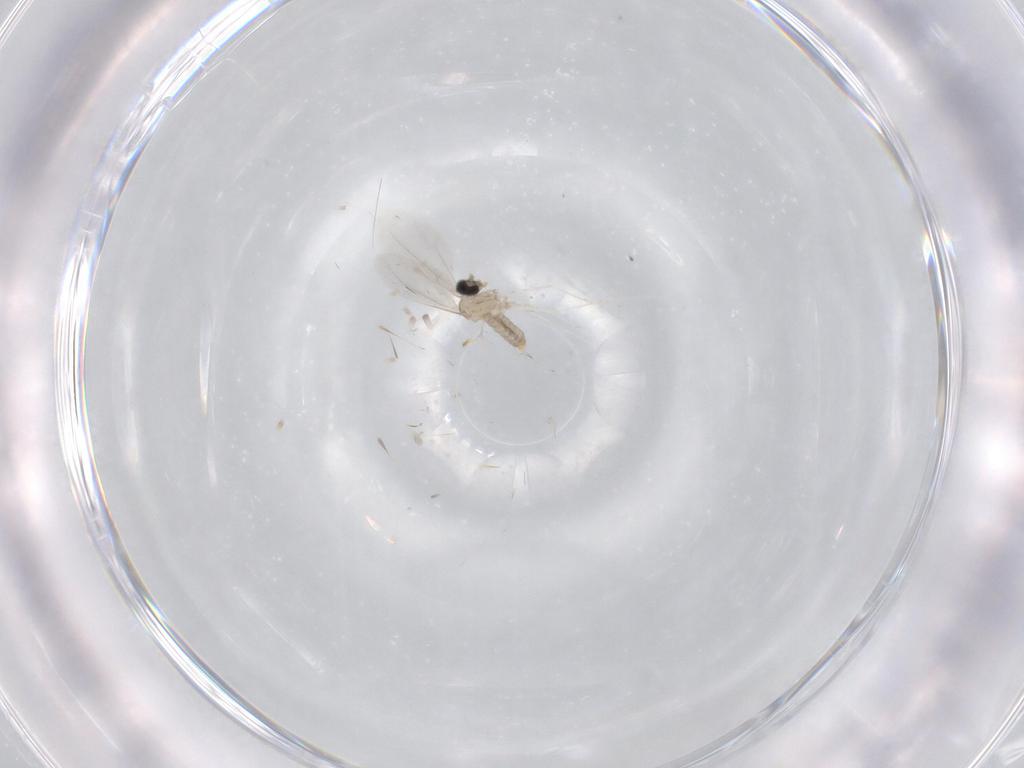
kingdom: Animalia
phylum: Arthropoda
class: Insecta
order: Diptera
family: Cecidomyiidae
